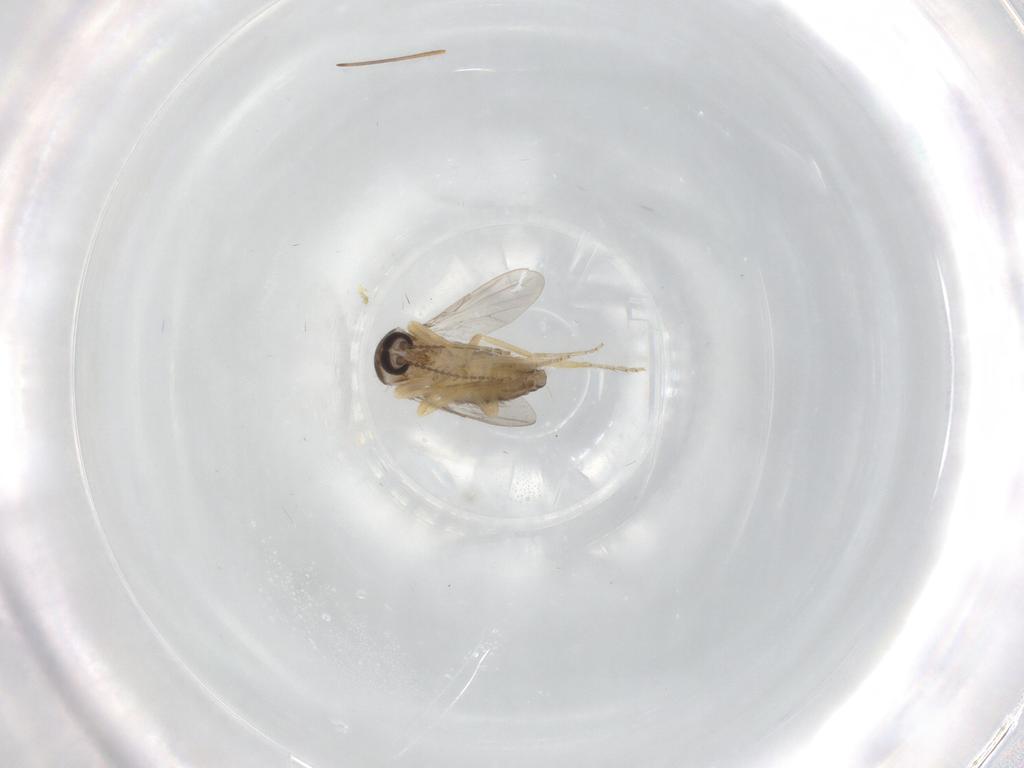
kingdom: Animalia
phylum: Arthropoda
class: Insecta
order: Diptera
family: Ceratopogonidae
